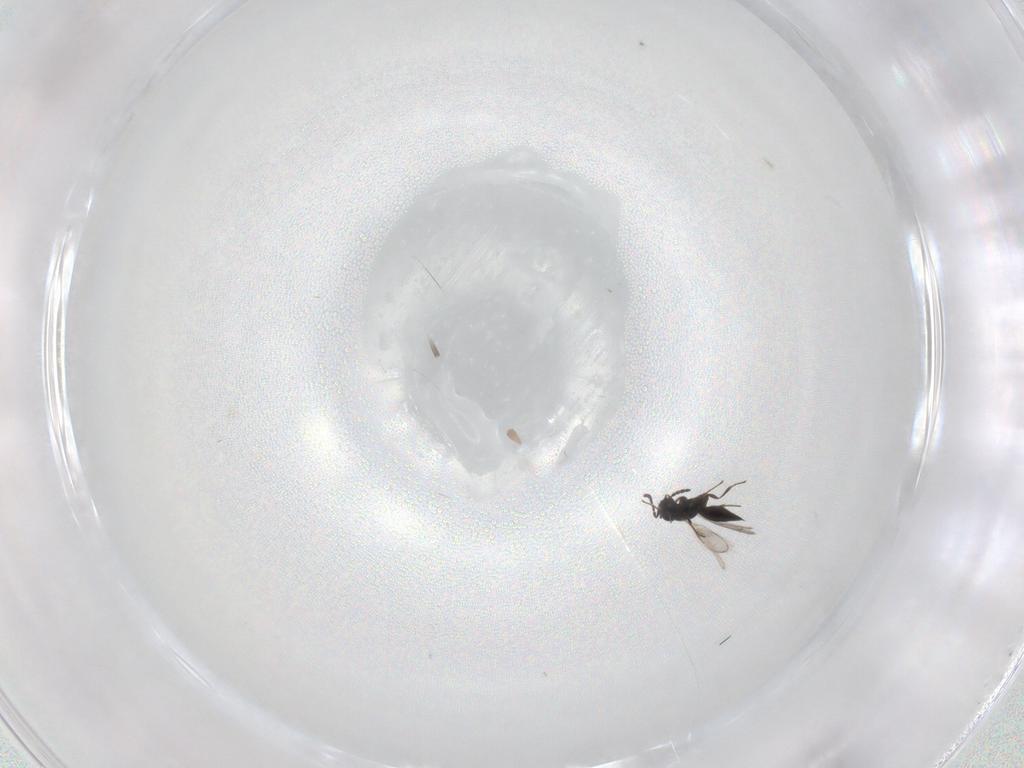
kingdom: Animalia
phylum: Arthropoda
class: Insecta
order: Hymenoptera
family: Scelionidae
